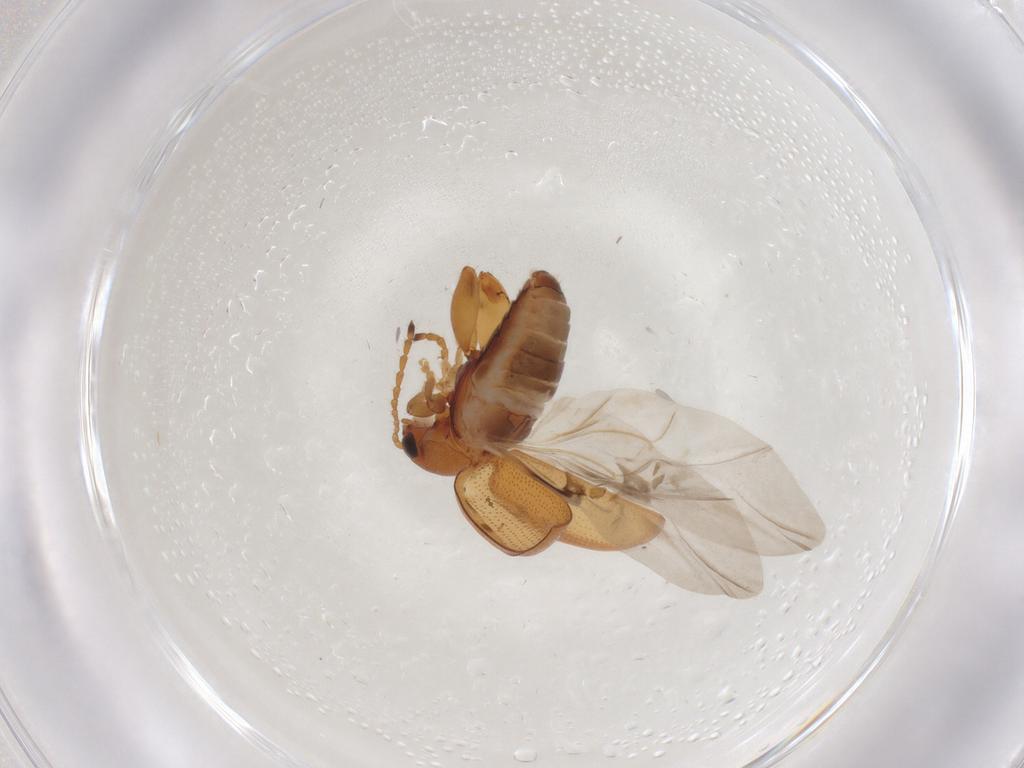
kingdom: Animalia
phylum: Arthropoda
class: Insecta
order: Coleoptera
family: Chrysomelidae
